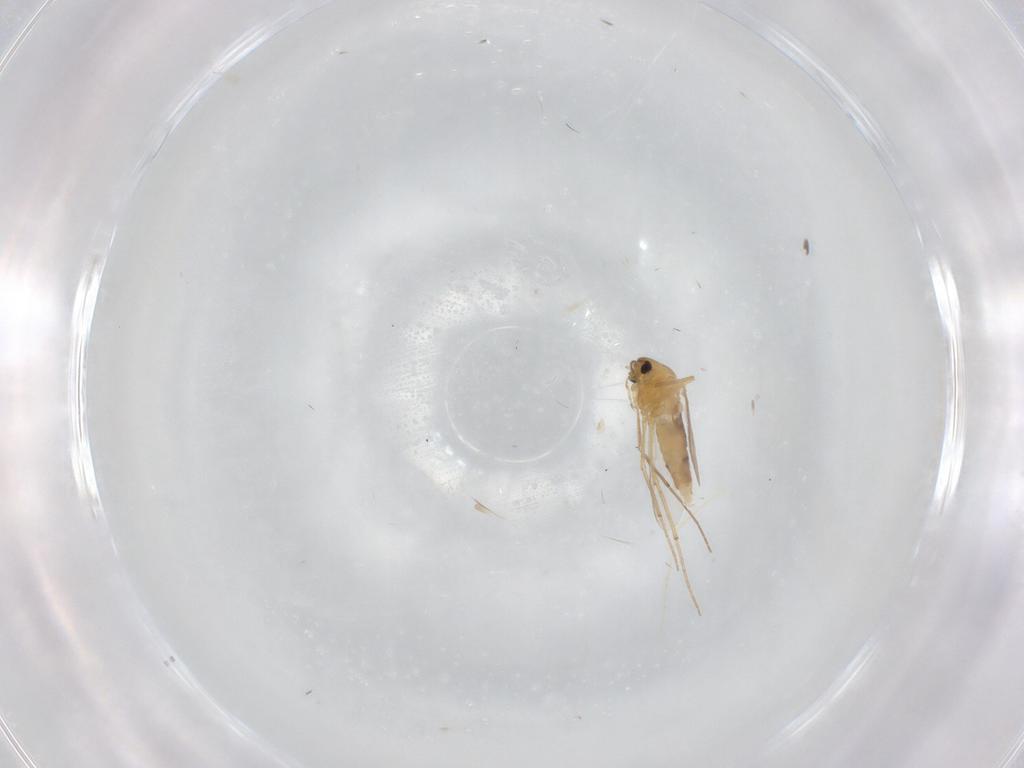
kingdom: Animalia
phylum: Arthropoda
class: Insecta
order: Diptera
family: Chironomidae
